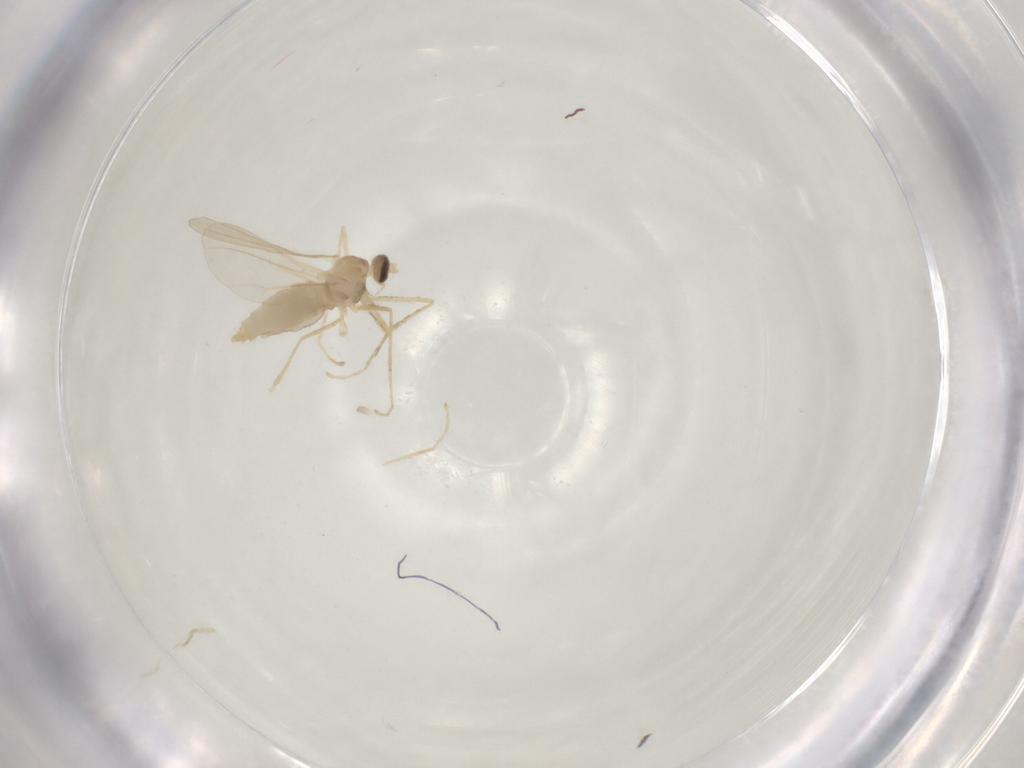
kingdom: Animalia
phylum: Arthropoda
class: Insecta
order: Diptera
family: Cecidomyiidae
